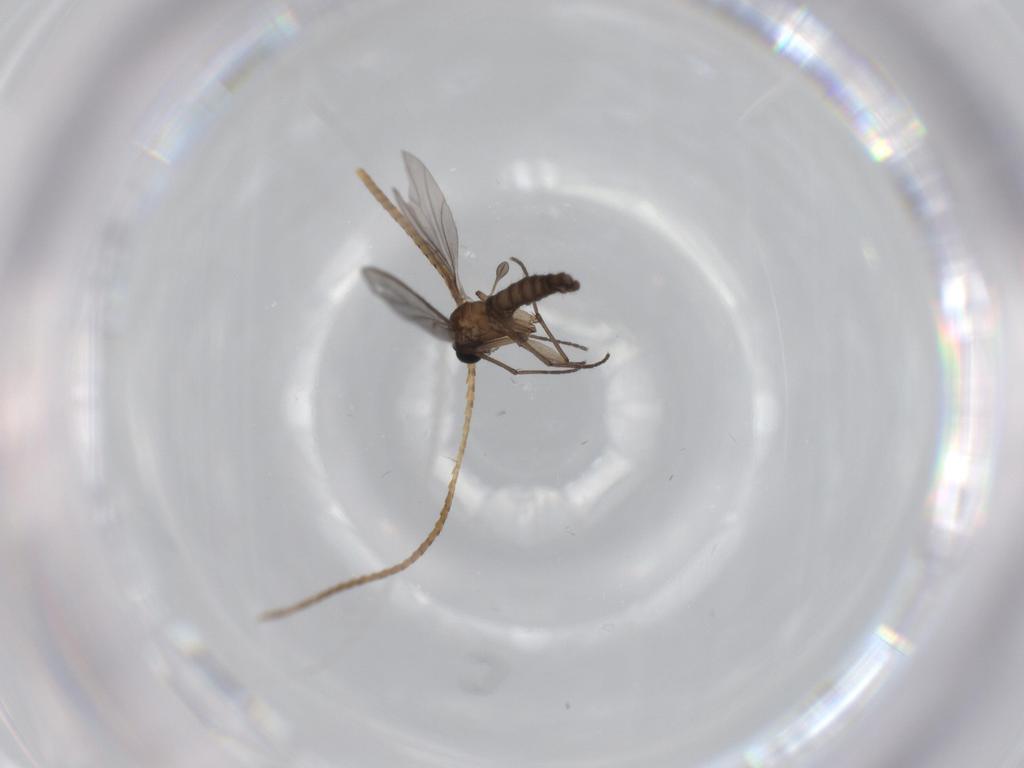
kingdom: Animalia
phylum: Arthropoda
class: Insecta
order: Diptera
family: Sciaridae
